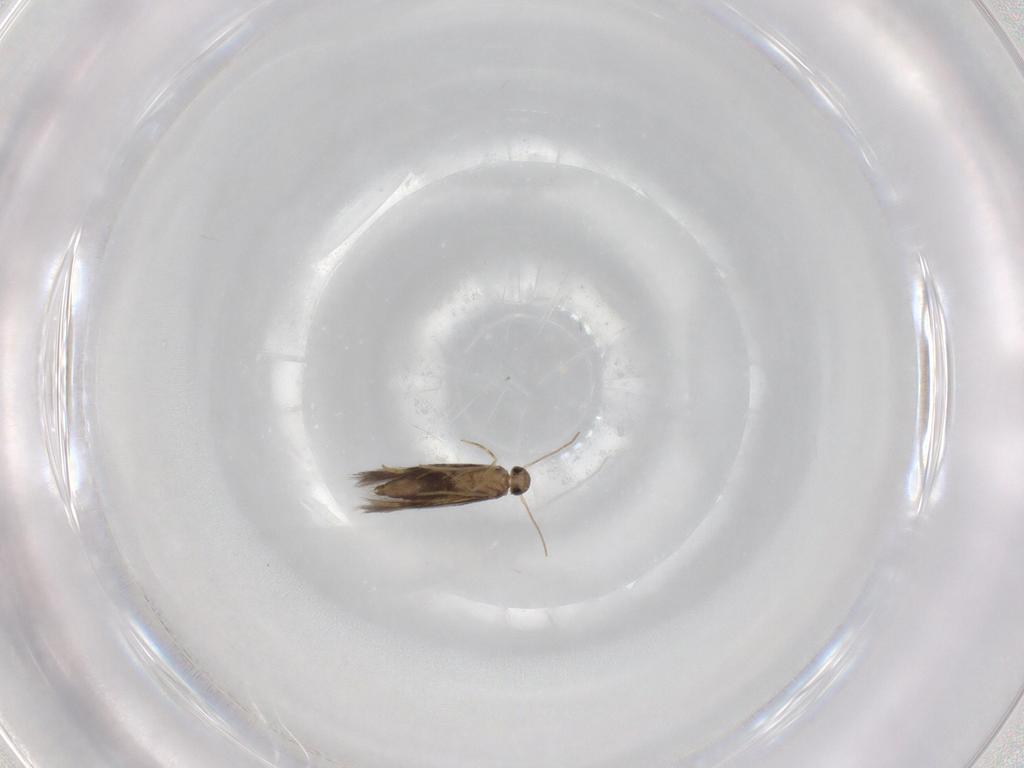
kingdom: Animalia
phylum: Arthropoda
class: Insecta
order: Lepidoptera
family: Heliozelidae
